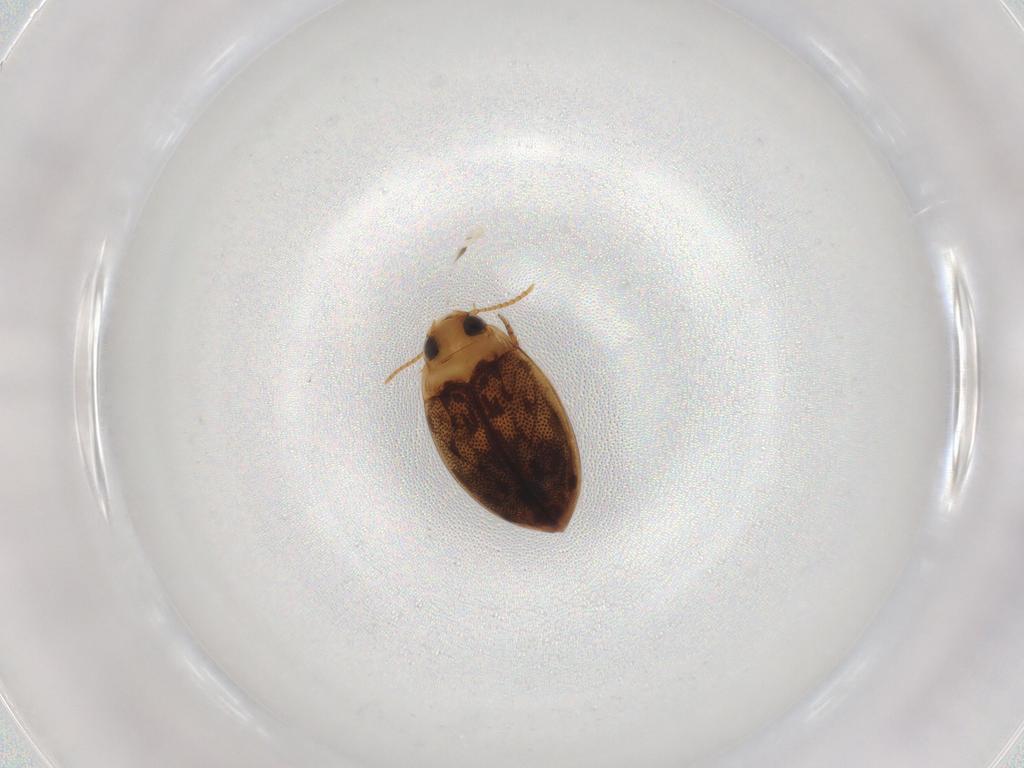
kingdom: Animalia
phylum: Arthropoda
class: Insecta
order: Coleoptera
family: Dytiscidae
